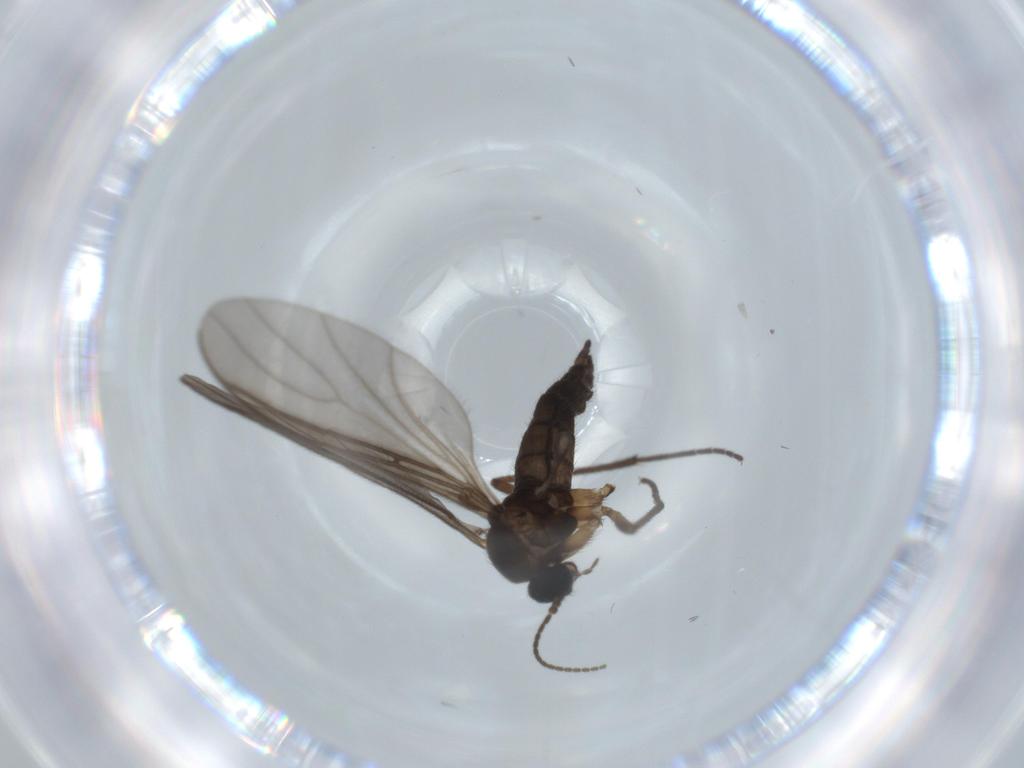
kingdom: Animalia
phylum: Arthropoda
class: Insecta
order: Diptera
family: Sciaridae
